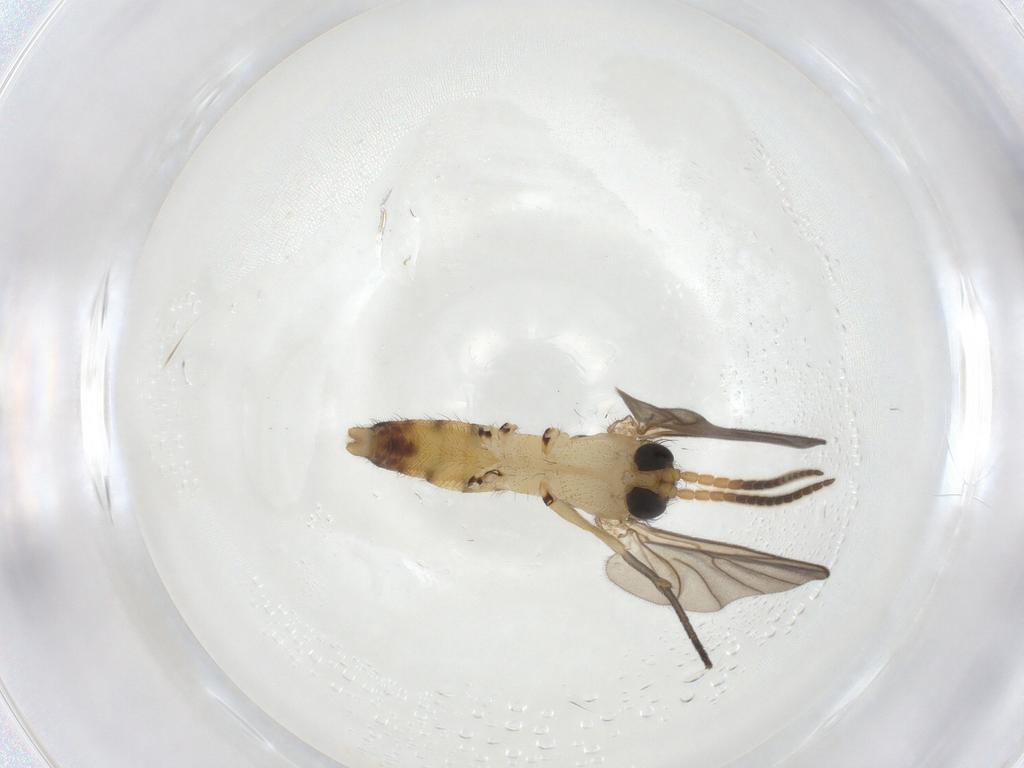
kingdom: Animalia
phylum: Arthropoda
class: Insecta
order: Diptera
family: Mycetophilidae
